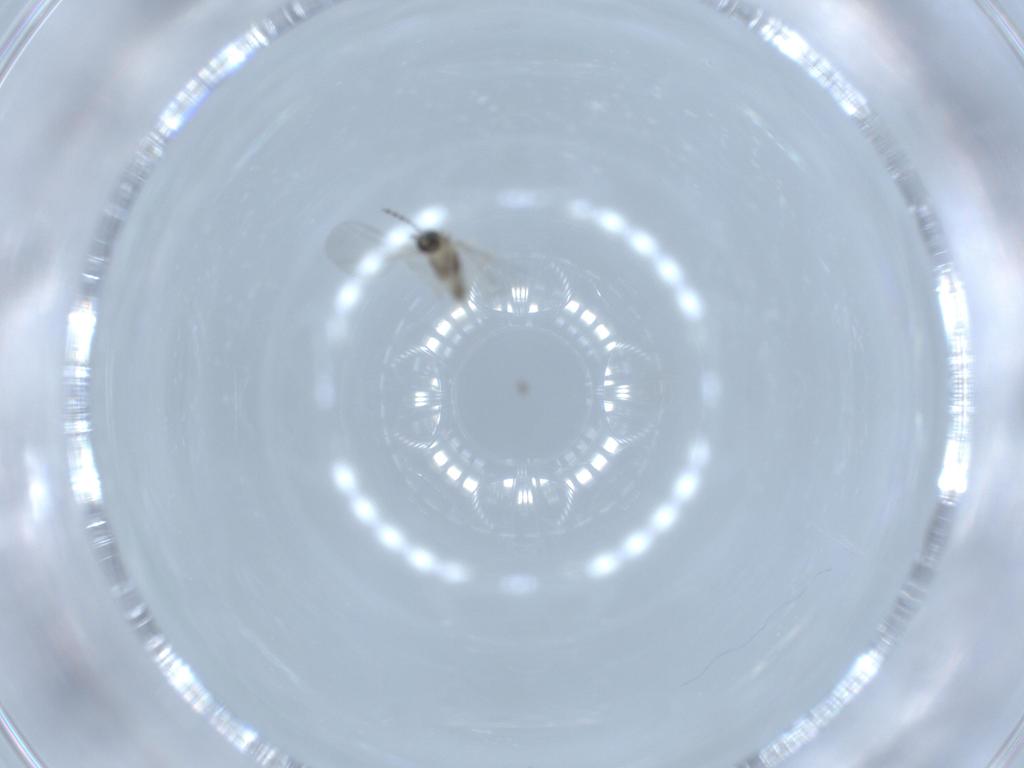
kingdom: Animalia
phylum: Arthropoda
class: Insecta
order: Diptera
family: Cecidomyiidae
